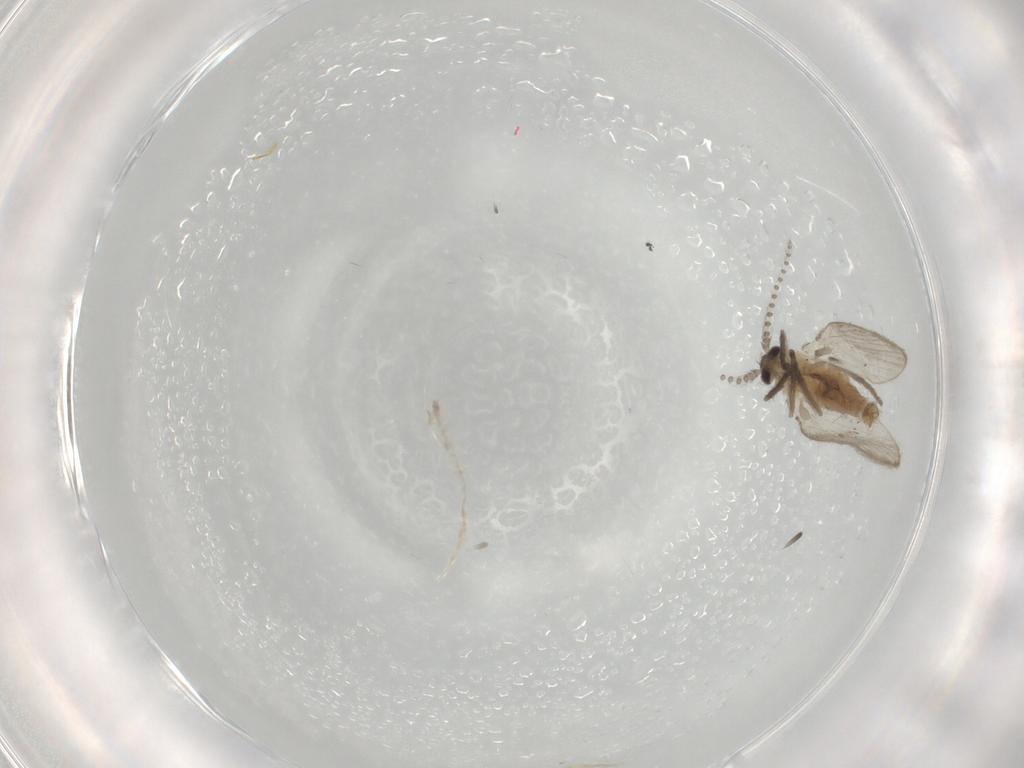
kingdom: Animalia
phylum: Arthropoda
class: Insecta
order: Diptera
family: Psychodidae
